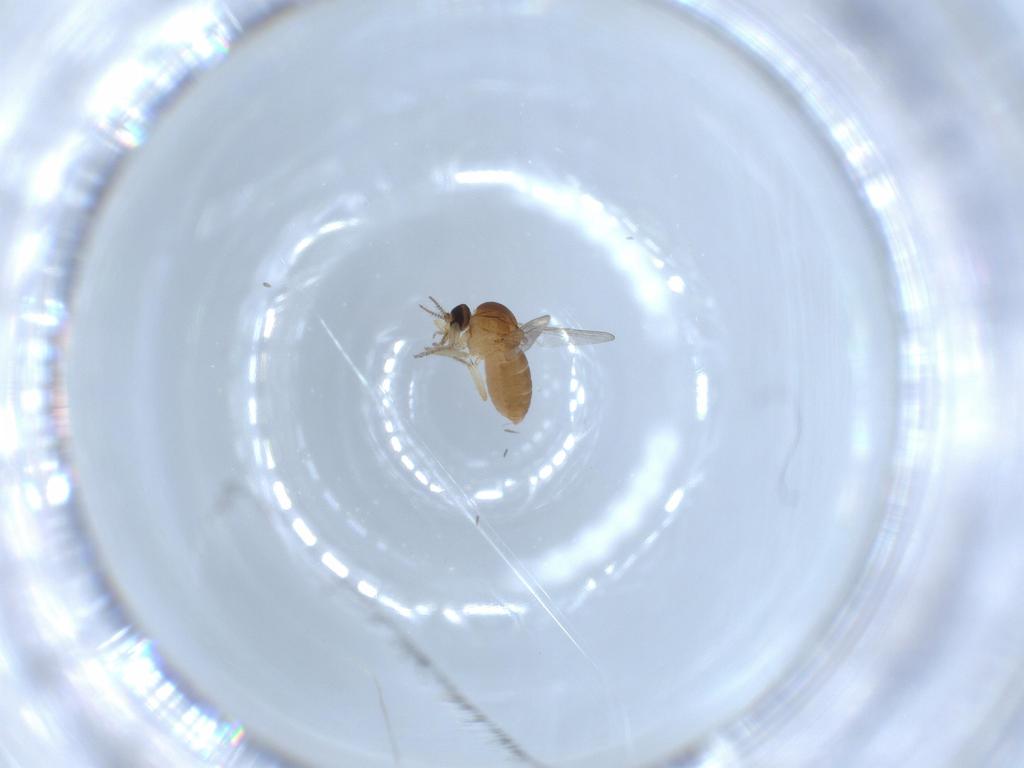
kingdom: Animalia
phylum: Arthropoda
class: Insecta
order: Diptera
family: Ceratopogonidae
